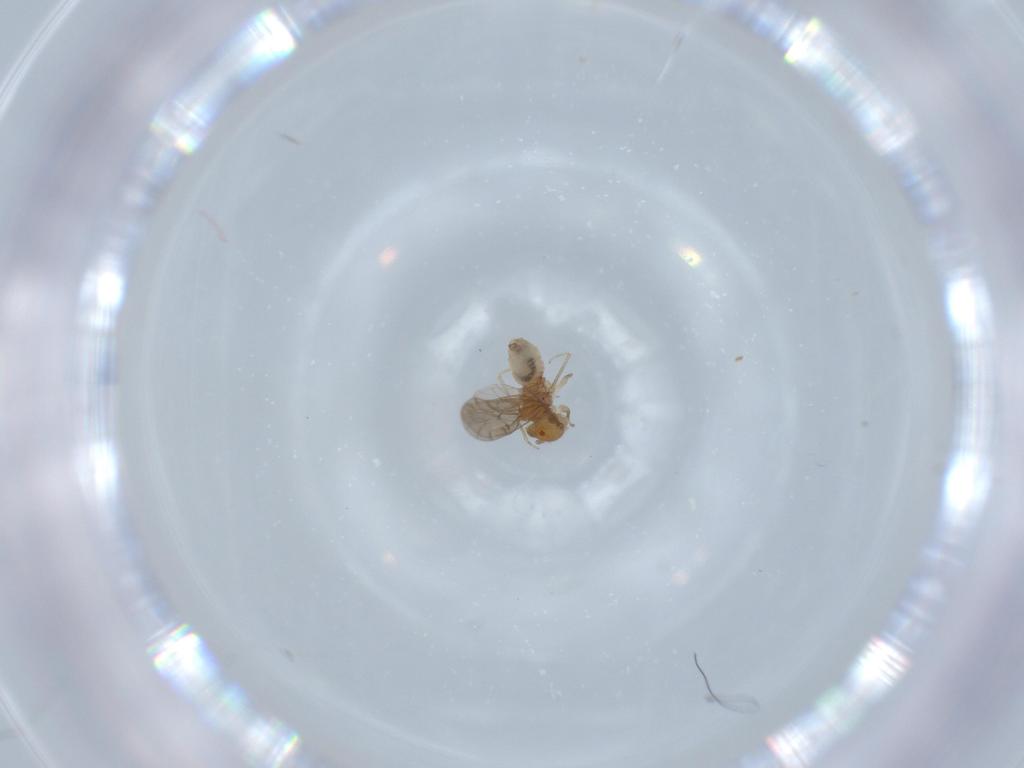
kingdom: Animalia
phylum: Arthropoda
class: Insecta
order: Psocodea
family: Ectopsocidae
